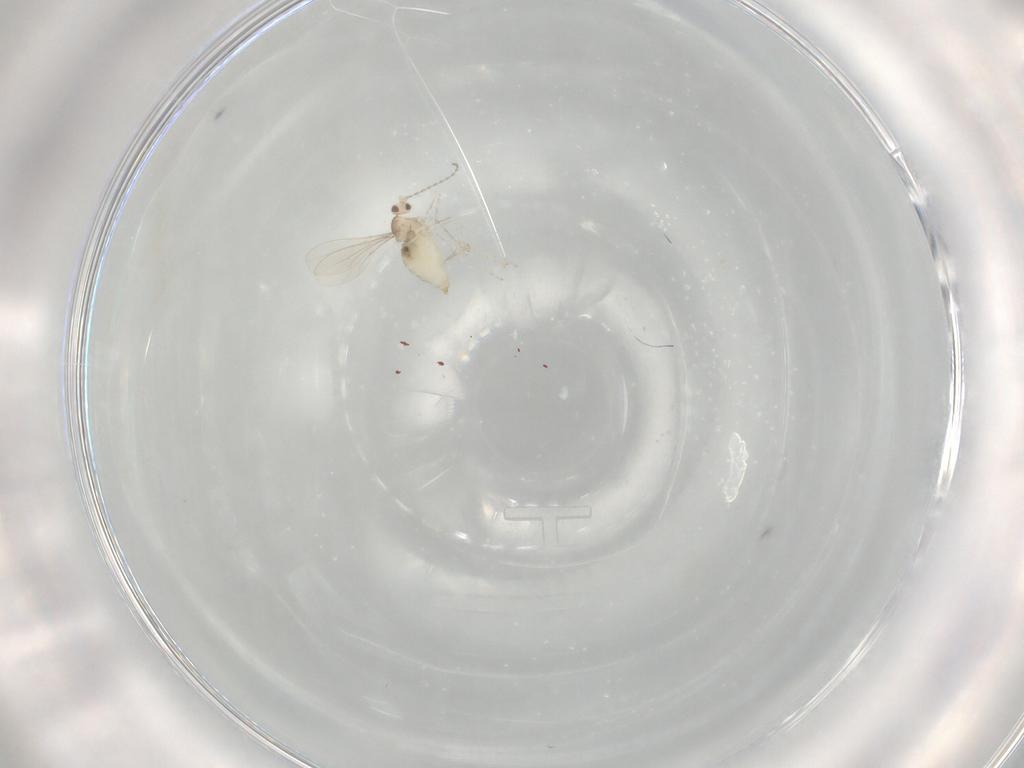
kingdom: Animalia
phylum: Arthropoda
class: Insecta
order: Diptera
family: Cecidomyiidae
